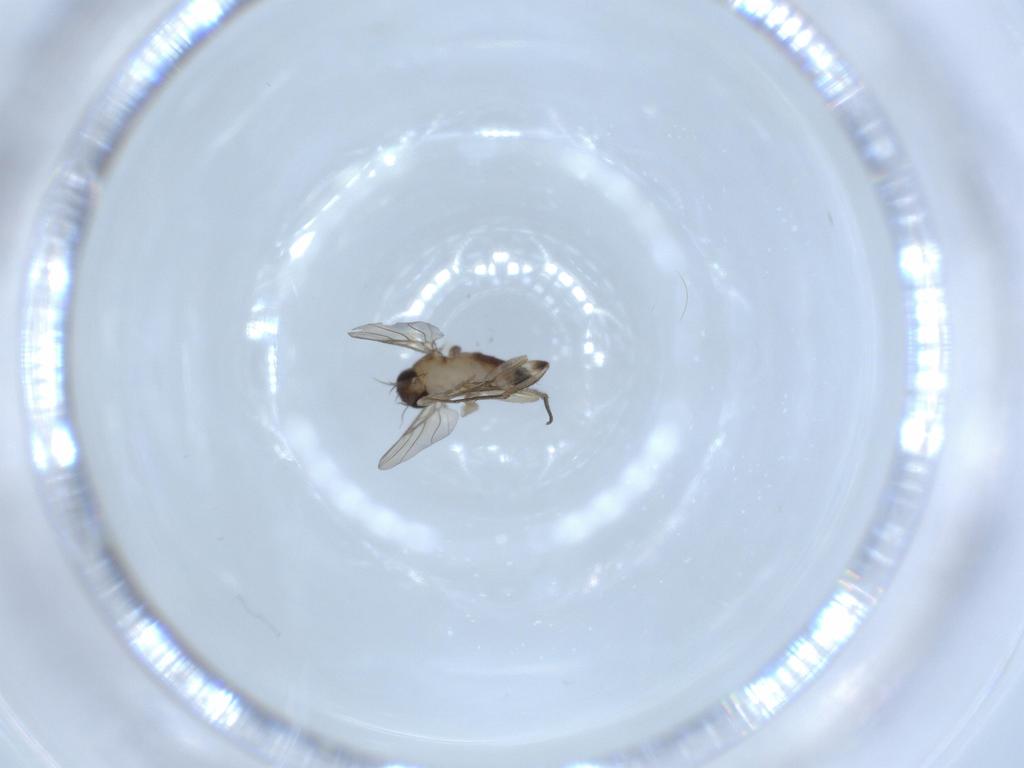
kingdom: Animalia
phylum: Arthropoda
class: Insecta
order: Diptera
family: Phoridae
